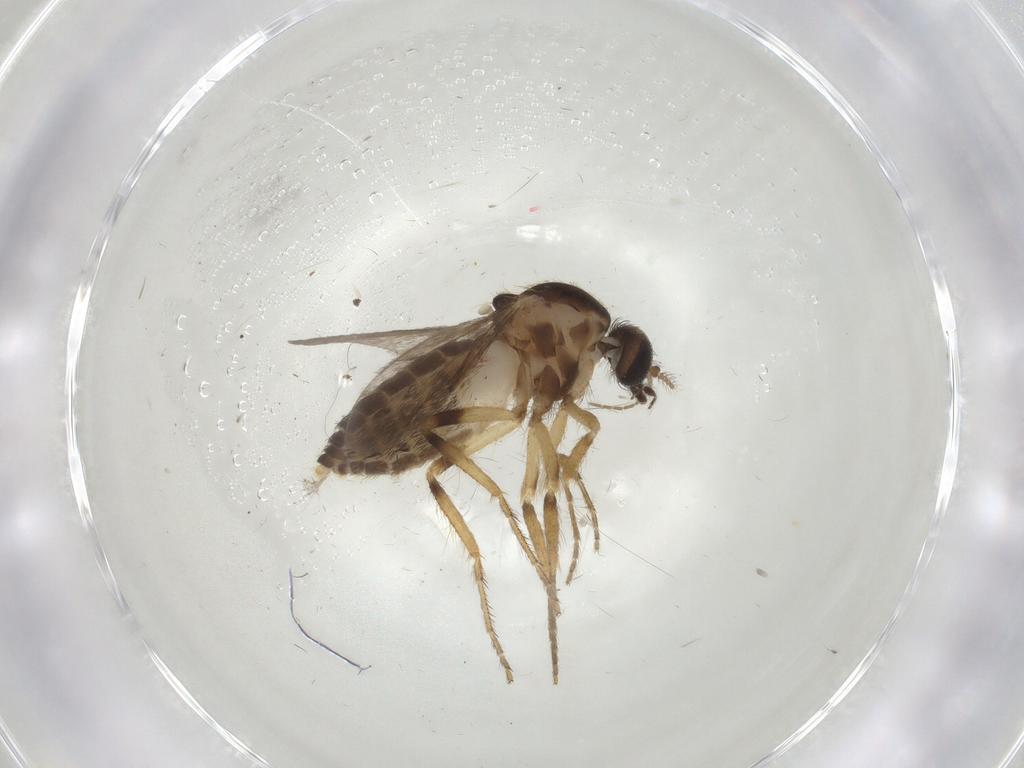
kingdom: Animalia
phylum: Arthropoda
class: Insecta
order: Diptera
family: Ceratopogonidae
